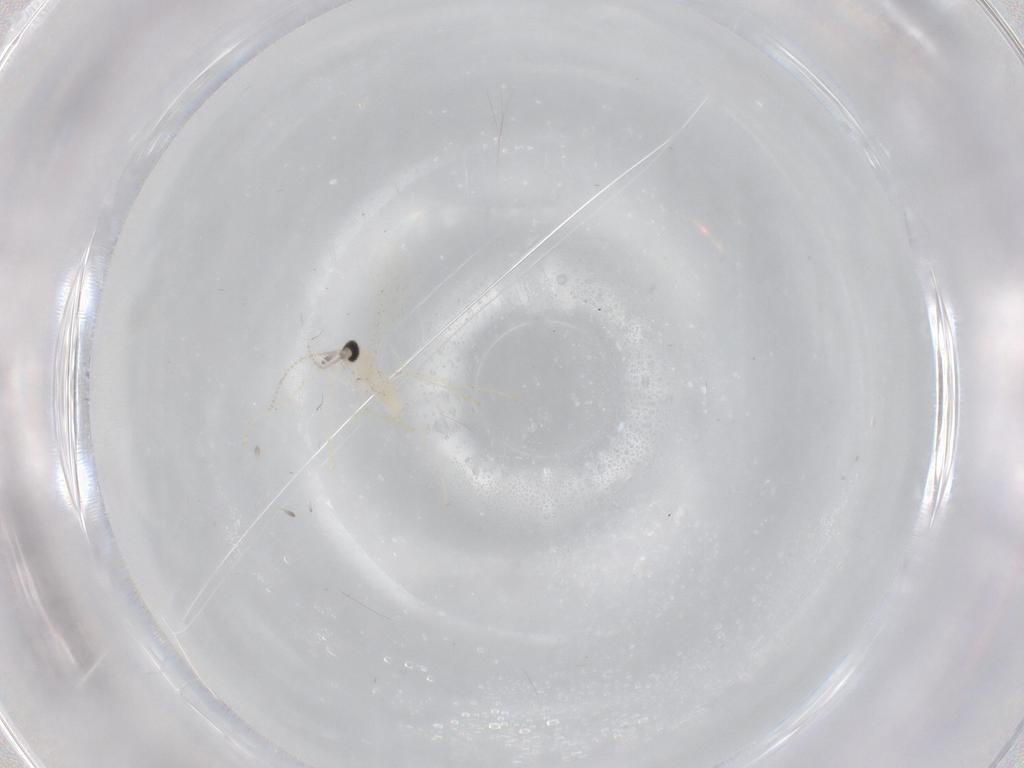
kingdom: Animalia
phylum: Arthropoda
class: Insecta
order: Diptera
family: Cecidomyiidae
